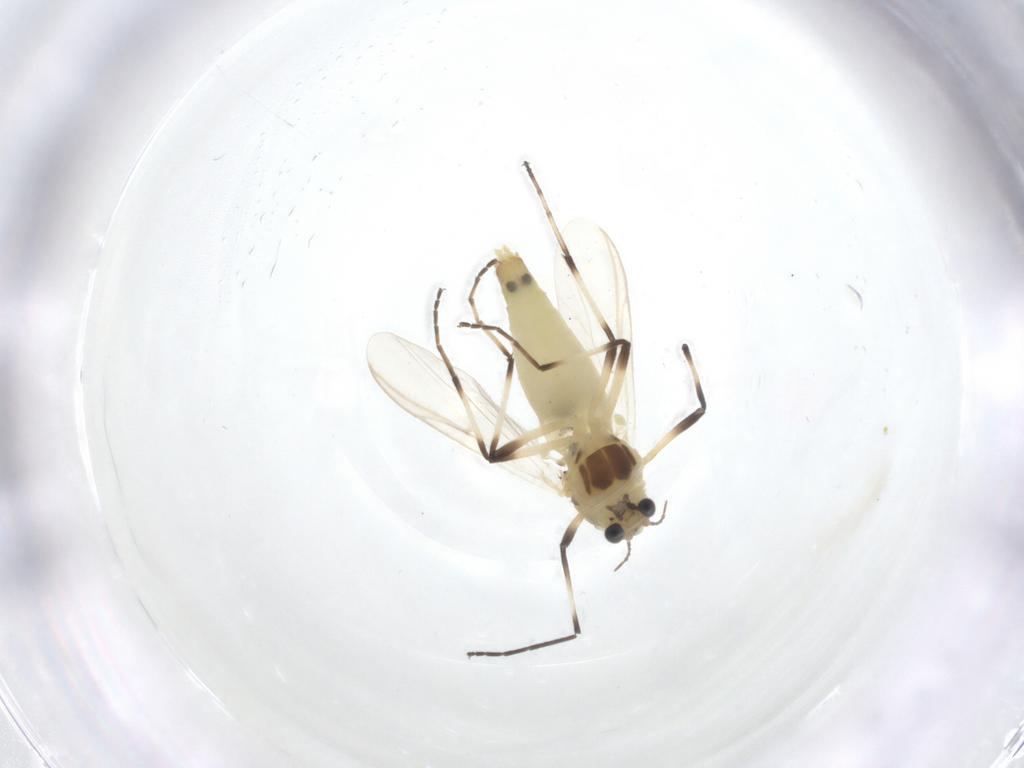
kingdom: Animalia
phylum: Arthropoda
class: Insecta
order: Diptera
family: Chironomidae
